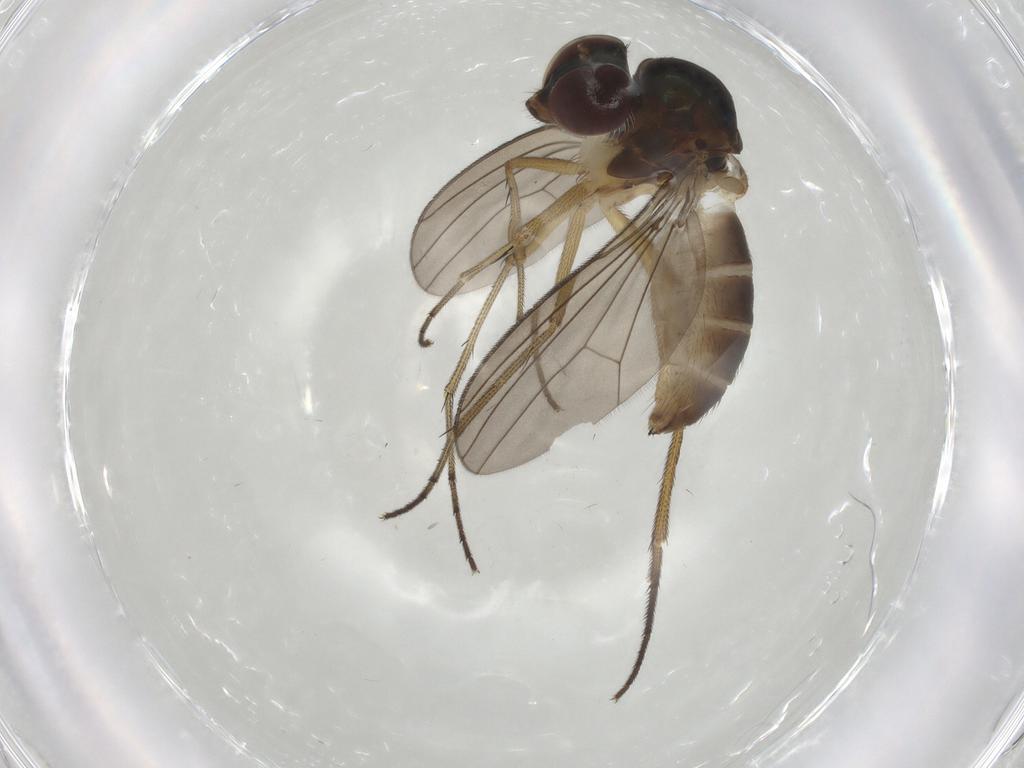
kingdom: Animalia
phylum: Arthropoda
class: Insecta
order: Diptera
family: Dolichopodidae
